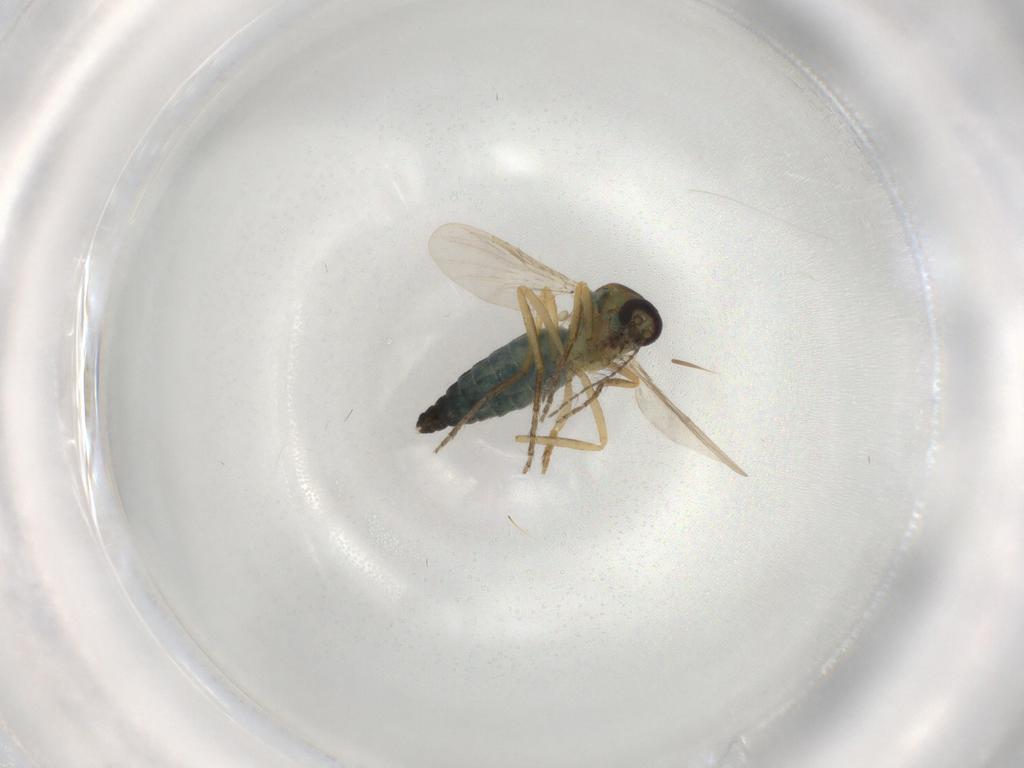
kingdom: Animalia
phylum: Arthropoda
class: Insecta
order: Diptera
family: Ceratopogonidae
